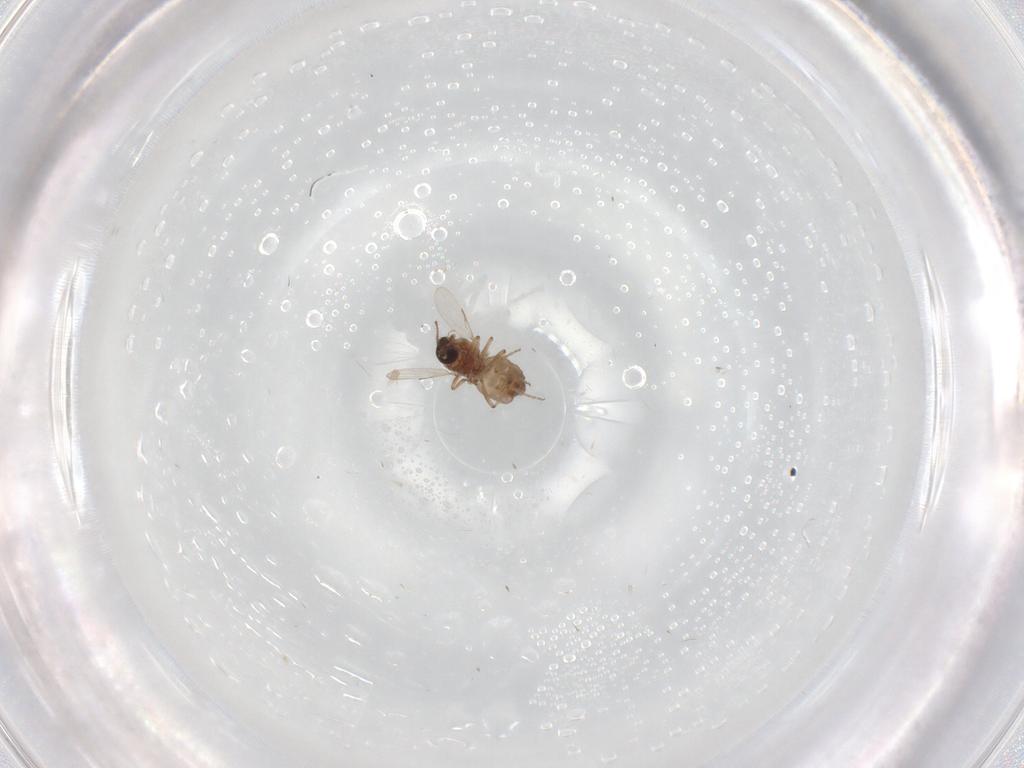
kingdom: Animalia
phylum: Arthropoda
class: Insecta
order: Diptera
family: Ceratopogonidae
